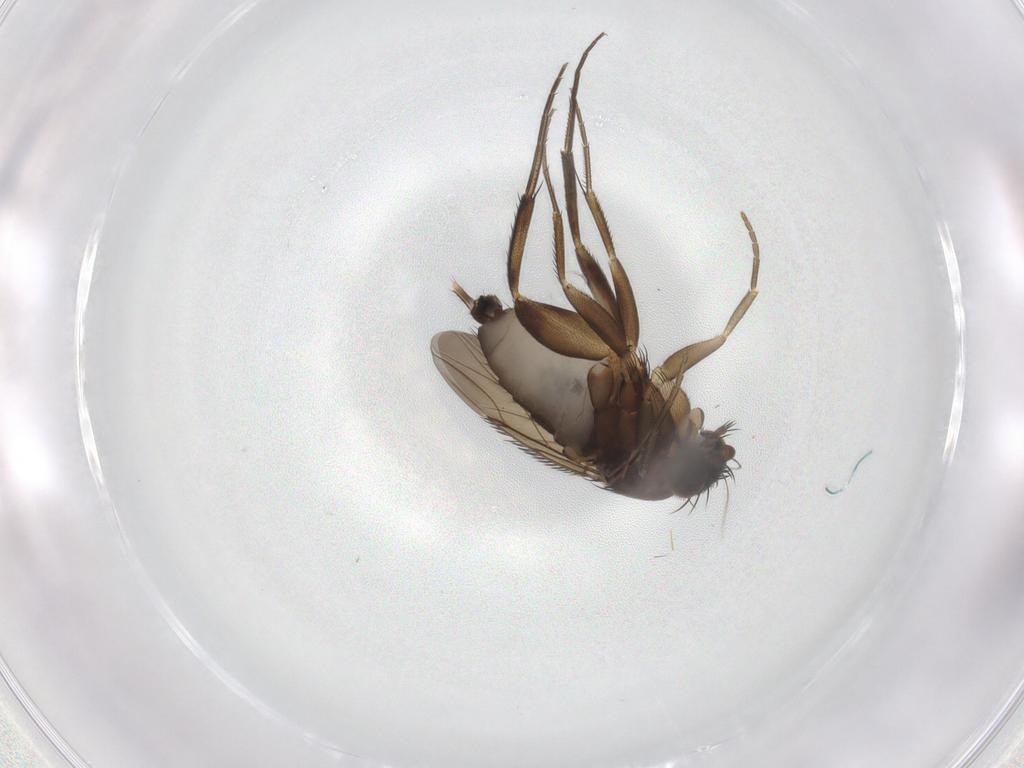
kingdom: Animalia
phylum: Arthropoda
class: Insecta
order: Diptera
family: Phoridae
